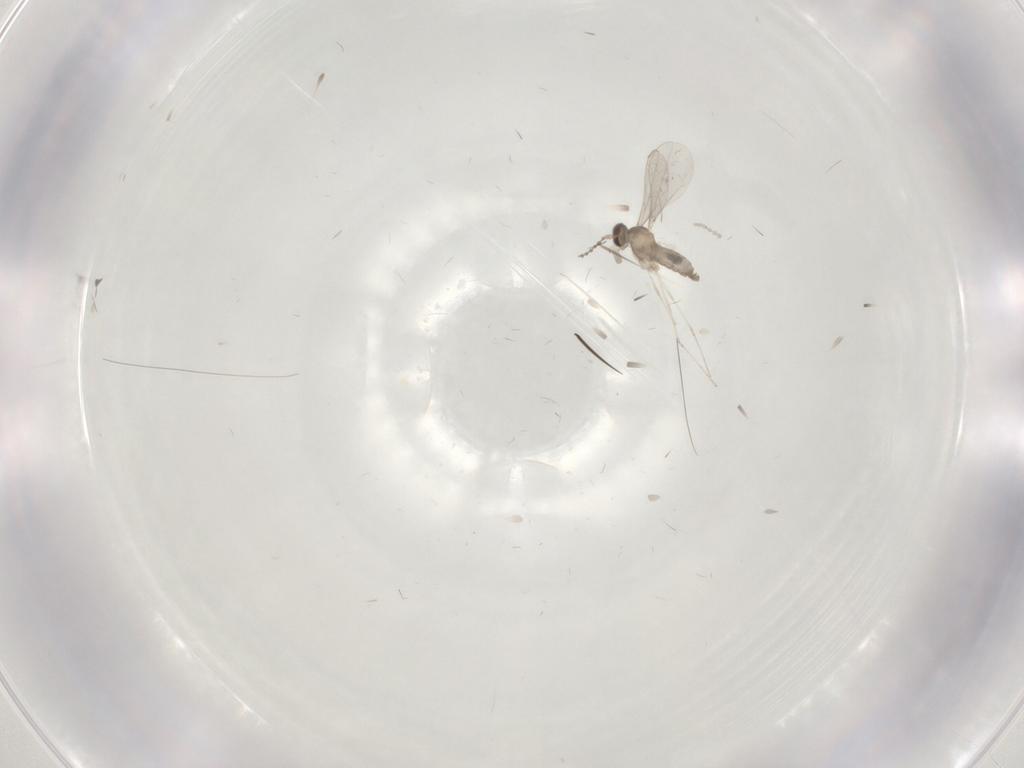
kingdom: Animalia
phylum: Arthropoda
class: Insecta
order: Diptera
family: Cecidomyiidae
